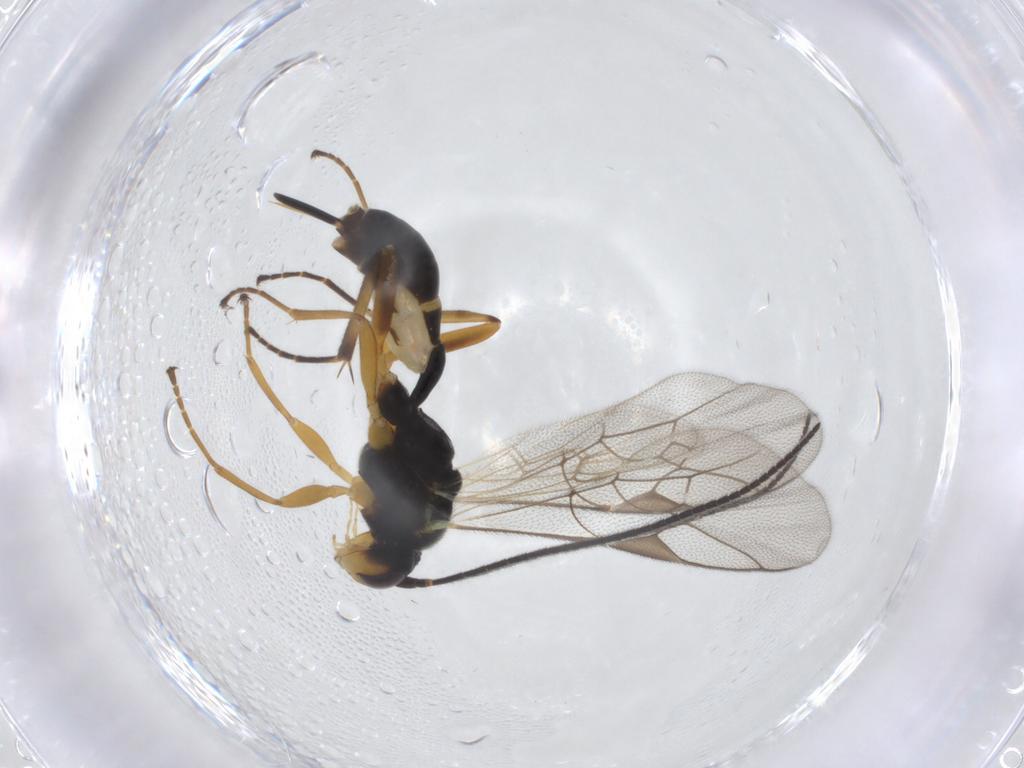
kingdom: Animalia
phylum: Arthropoda
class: Insecta
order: Hymenoptera
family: Ichneumonidae
